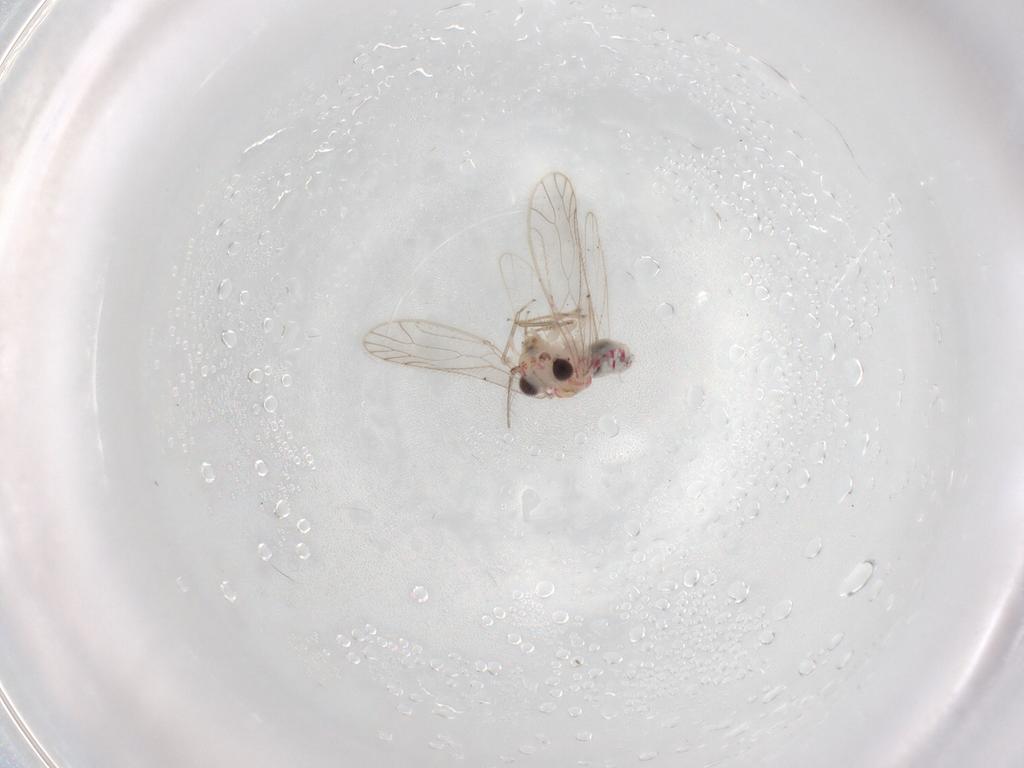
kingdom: Animalia
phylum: Arthropoda
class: Insecta
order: Psocodea
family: Caeciliusidae
